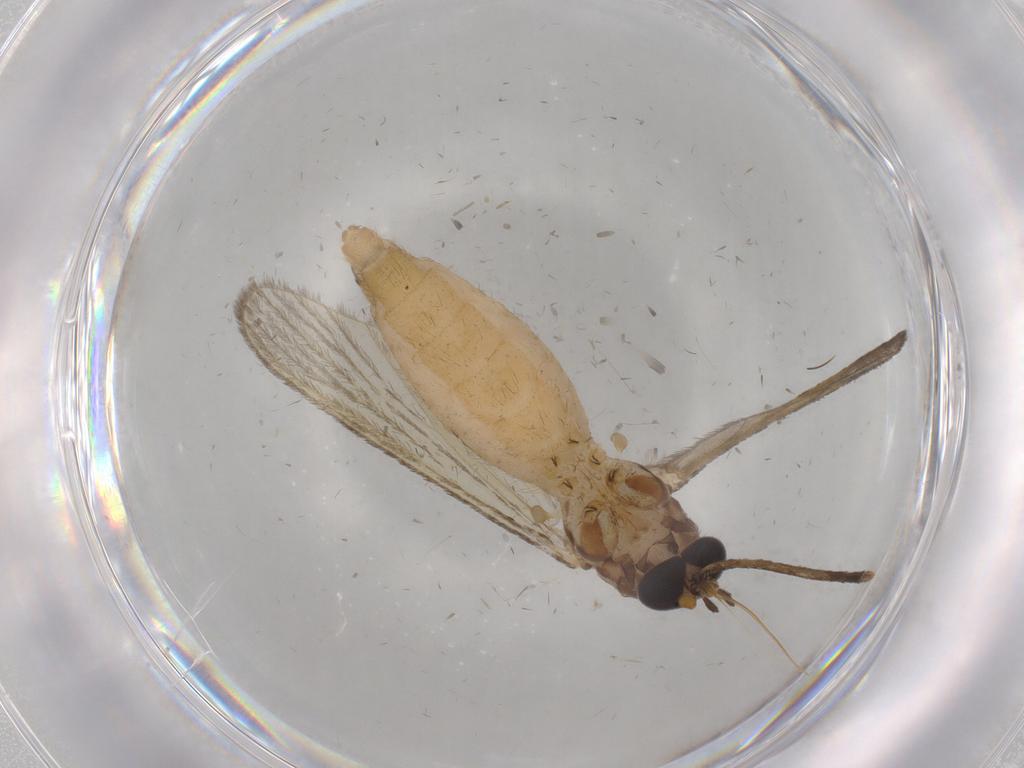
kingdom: Animalia
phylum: Arthropoda
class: Insecta
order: Diptera
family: Culicidae
